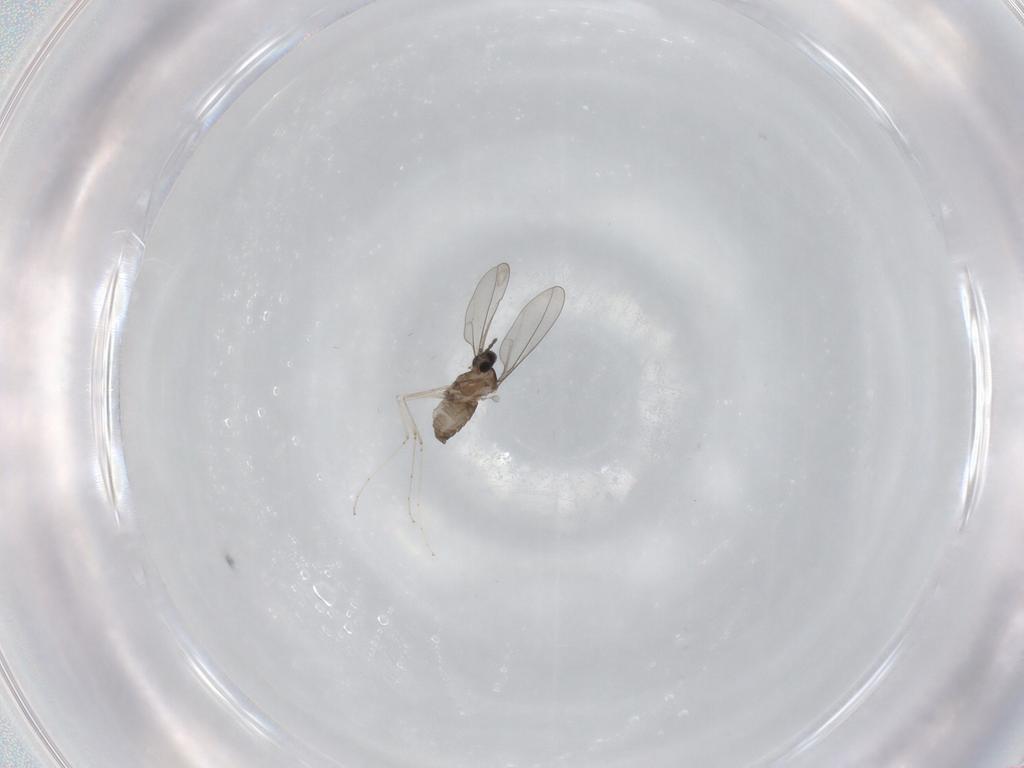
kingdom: Animalia
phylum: Arthropoda
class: Insecta
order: Diptera
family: Cecidomyiidae
